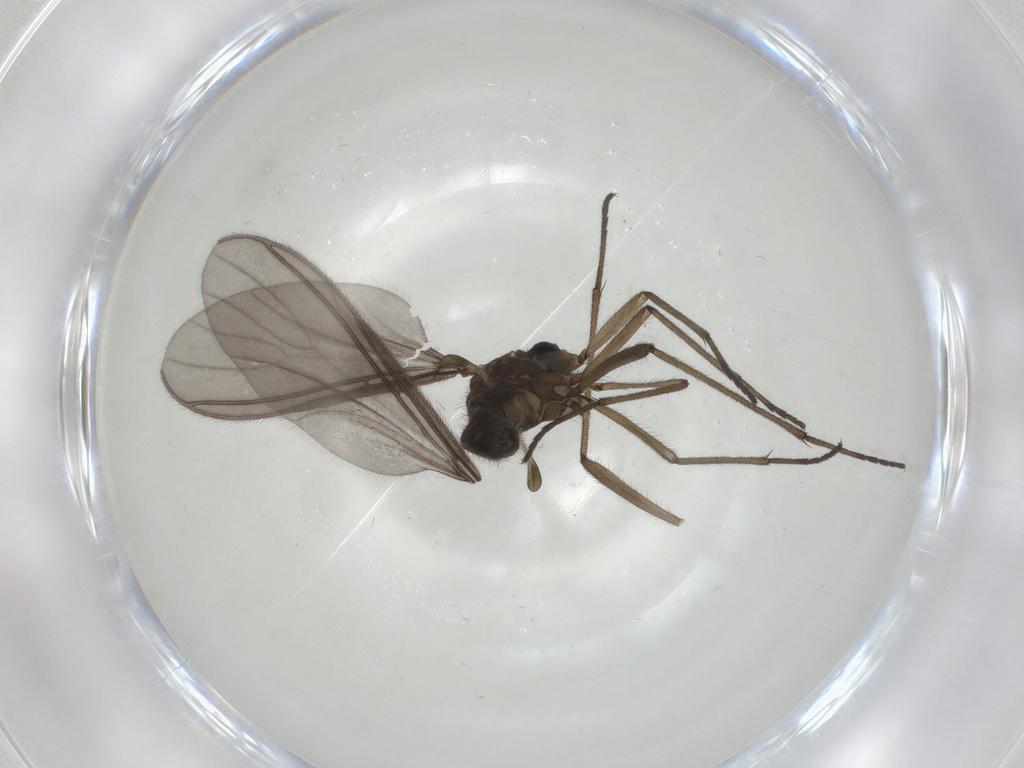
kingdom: Animalia
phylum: Arthropoda
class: Insecta
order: Diptera
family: Sciaridae
